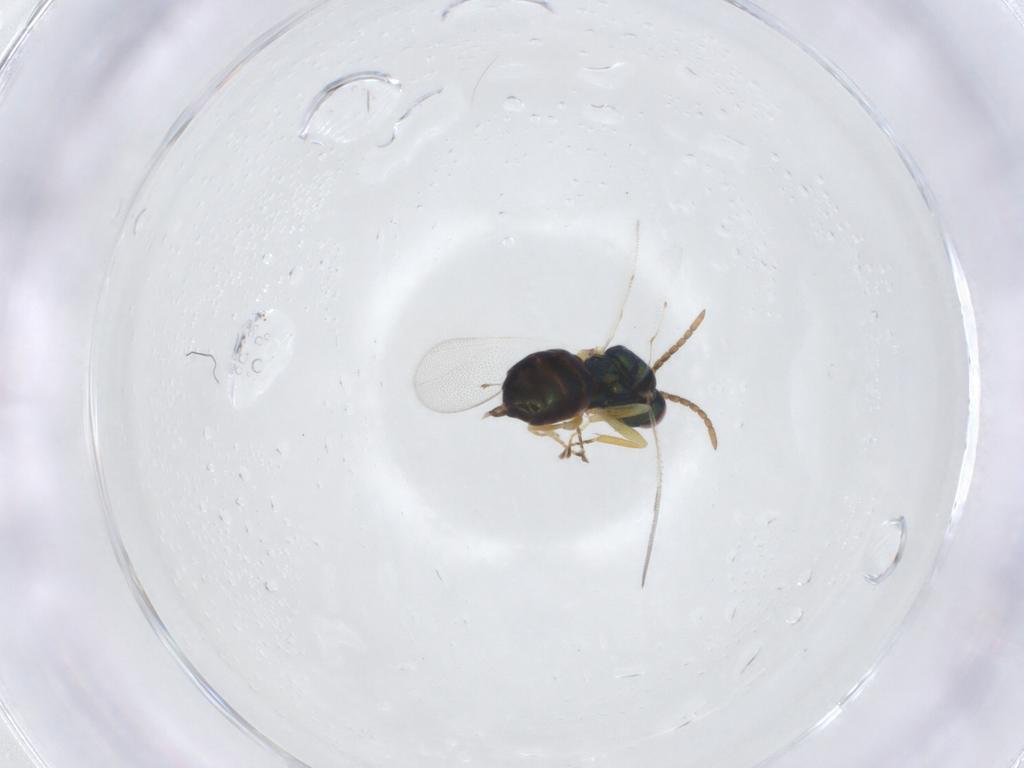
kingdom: Animalia
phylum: Arthropoda
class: Insecta
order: Hymenoptera
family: Pteromalidae
